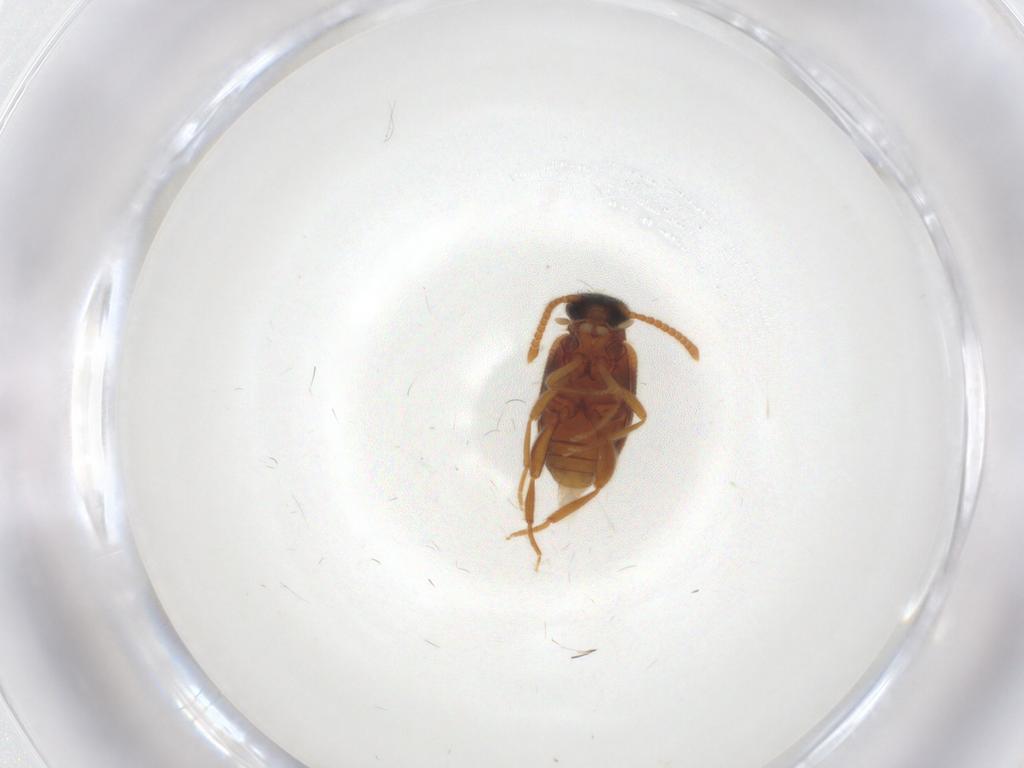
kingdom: Animalia
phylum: Arthropoda
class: Insecta
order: Coleoptera
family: Aderidae
